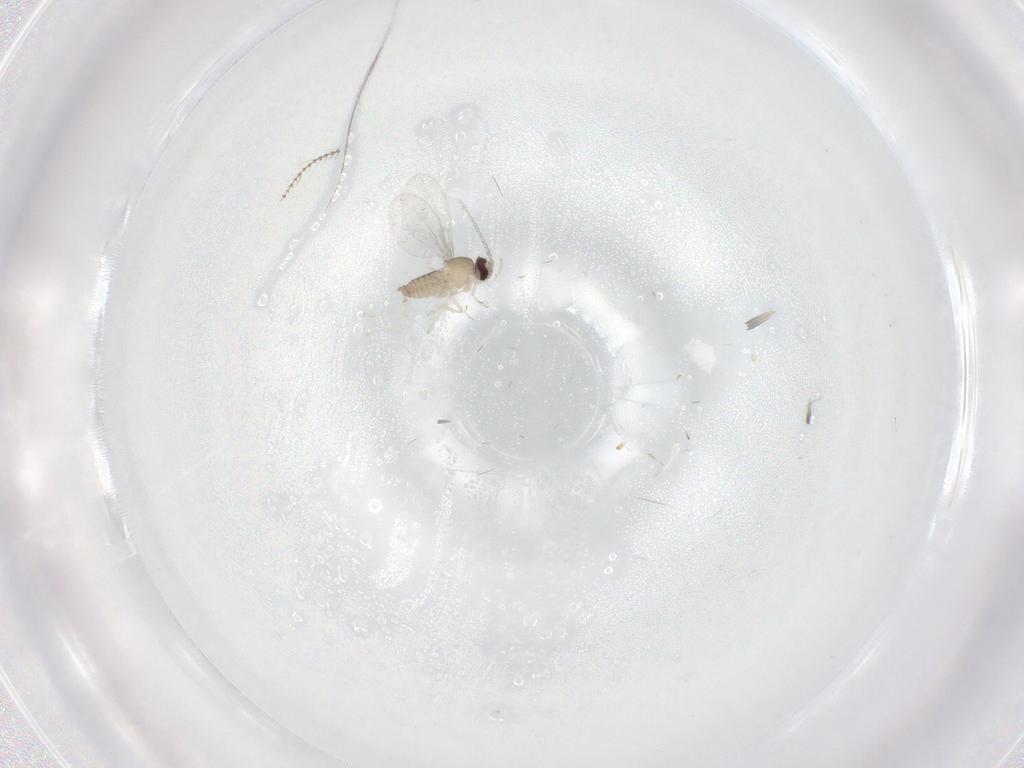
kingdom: Animalia
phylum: Arthropoda
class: Insecta
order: Diptera
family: Cecidomyiidae
